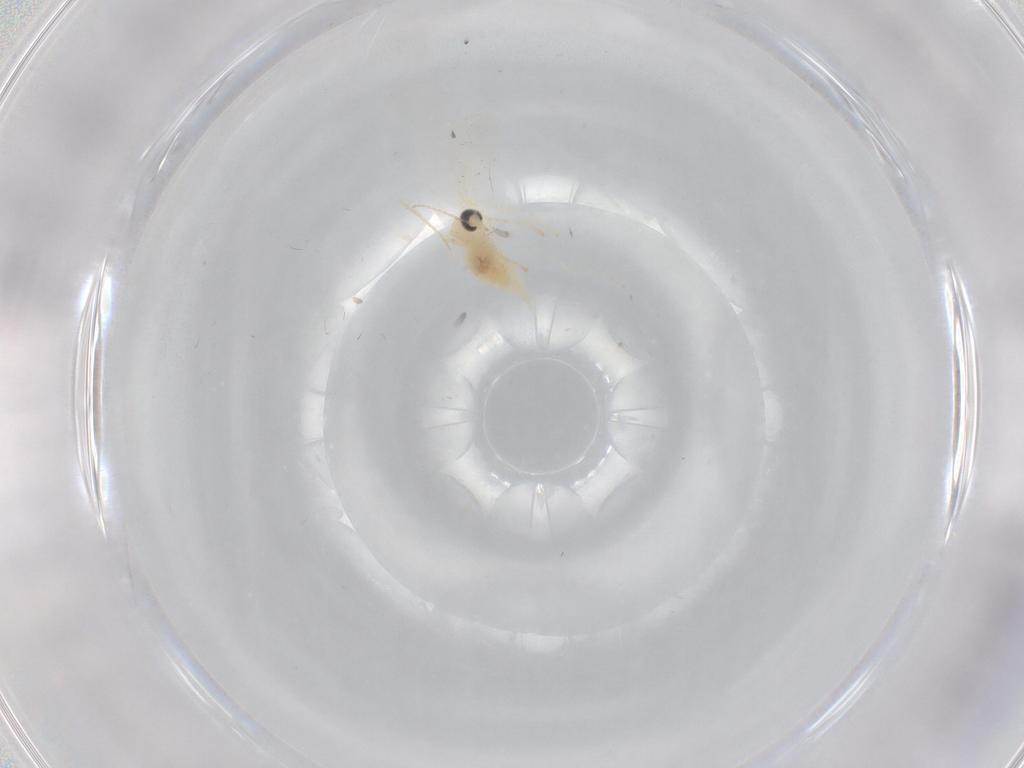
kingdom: Animalia
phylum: Arthropoda
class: Insecta
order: Diptera
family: Cecidomyiidae
